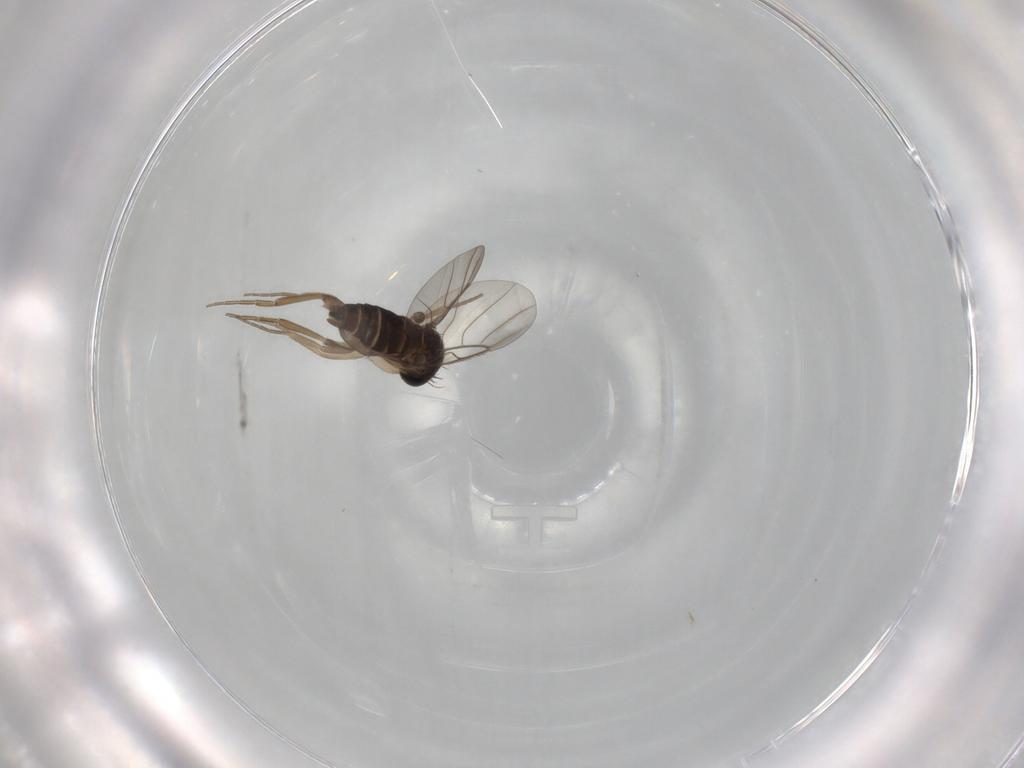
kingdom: Animalia
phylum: Arthropoda
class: Insecta
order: Diptera
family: Phoridae
